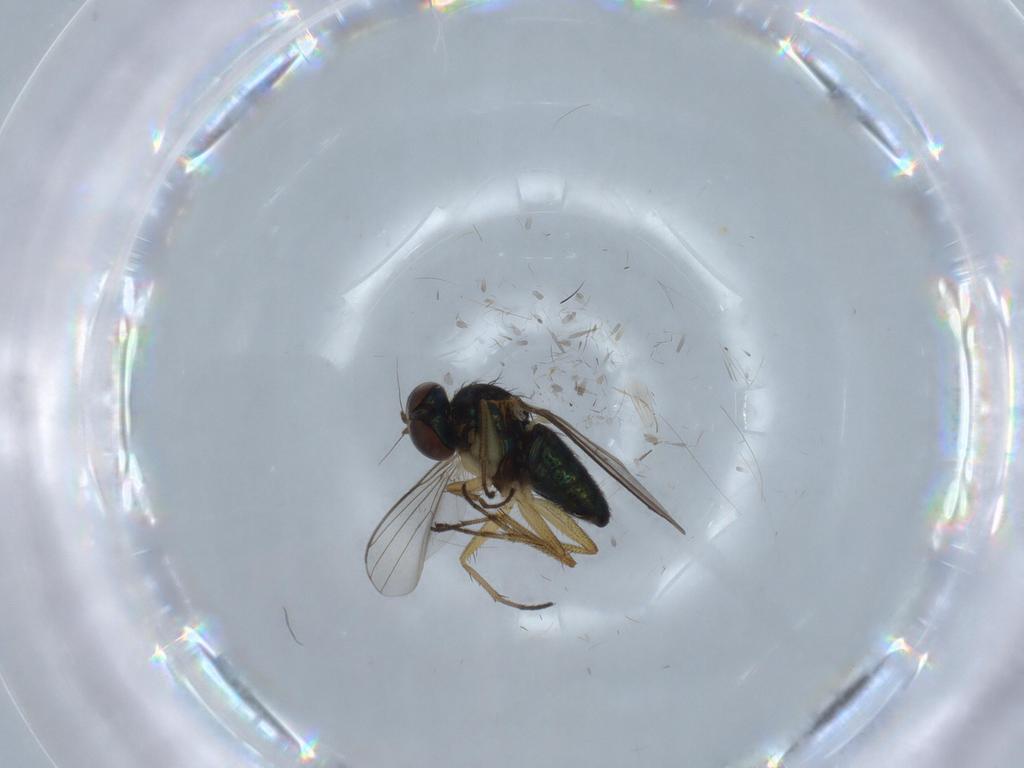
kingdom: Animalia
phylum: Arthropoda
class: Insecta
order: Diptera
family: Dolichopodidae
